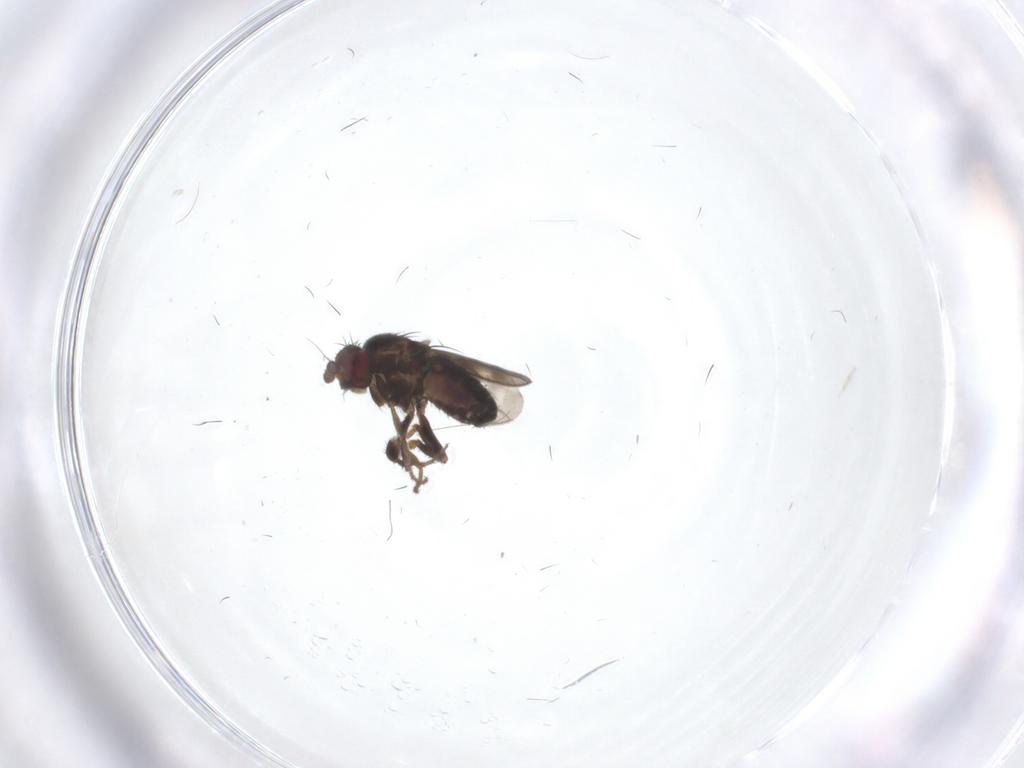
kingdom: Animalia
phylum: Arthropoda
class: Insecta
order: Diptera
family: Sphaeroceridae
